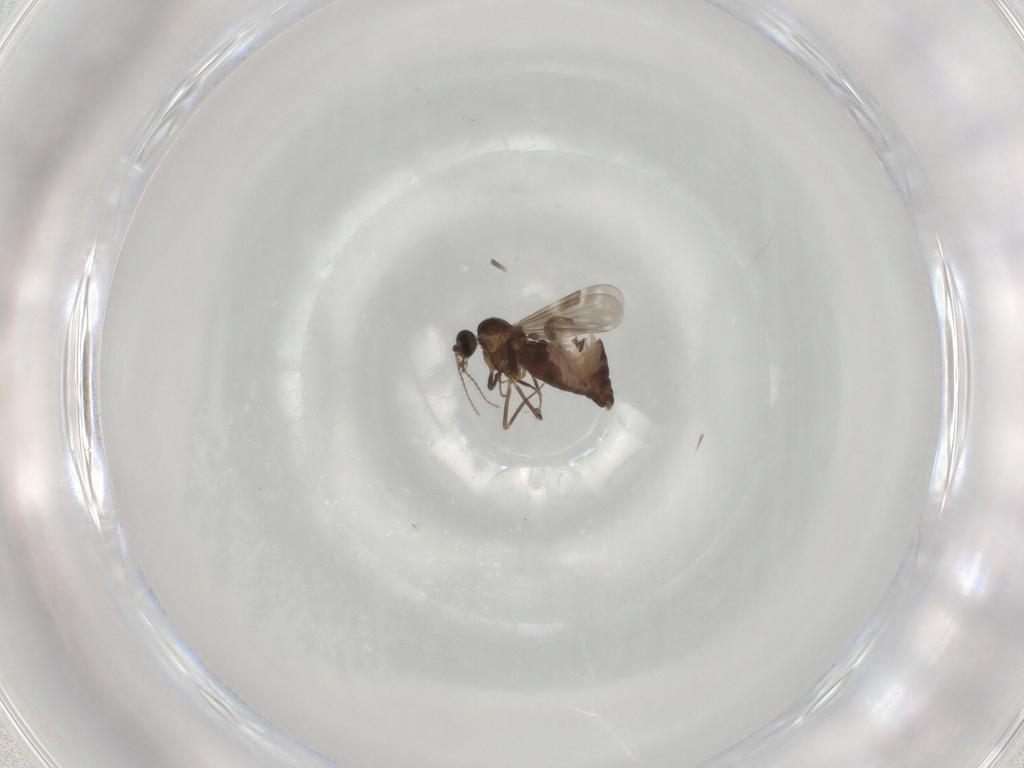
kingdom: Animalia
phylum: Arthropoda
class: Insecta
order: Diptera
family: Ceratopogonidae
